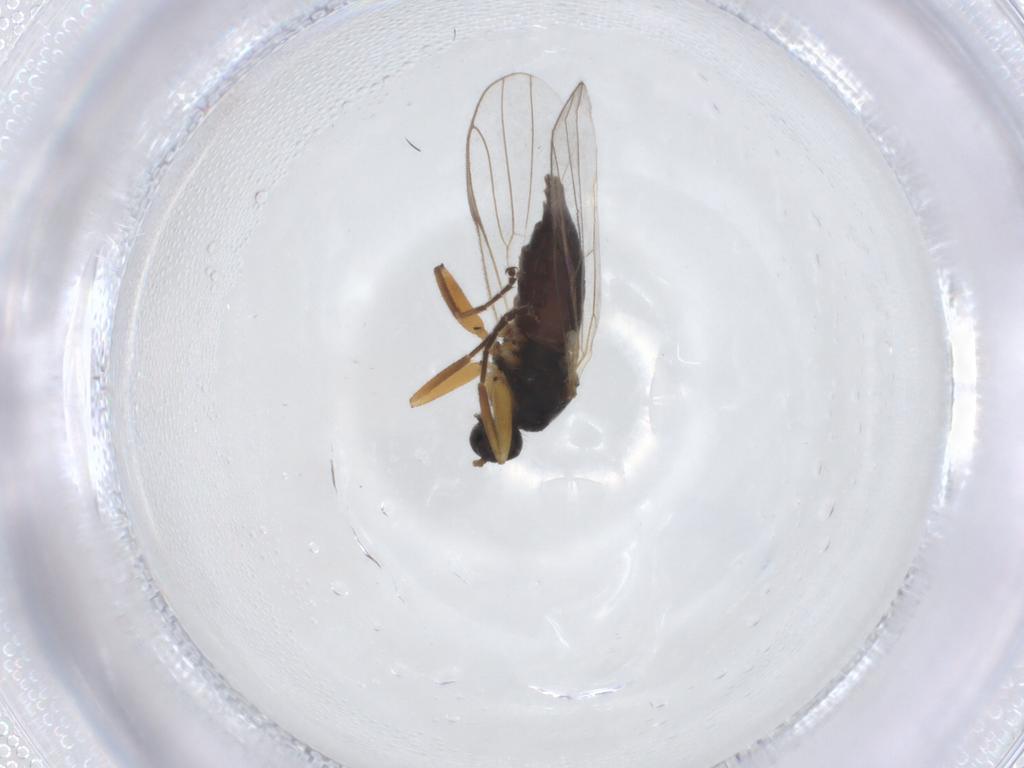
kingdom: Animalia
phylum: Arthropoda
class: Insecta
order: Diptera
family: Hybotidae
